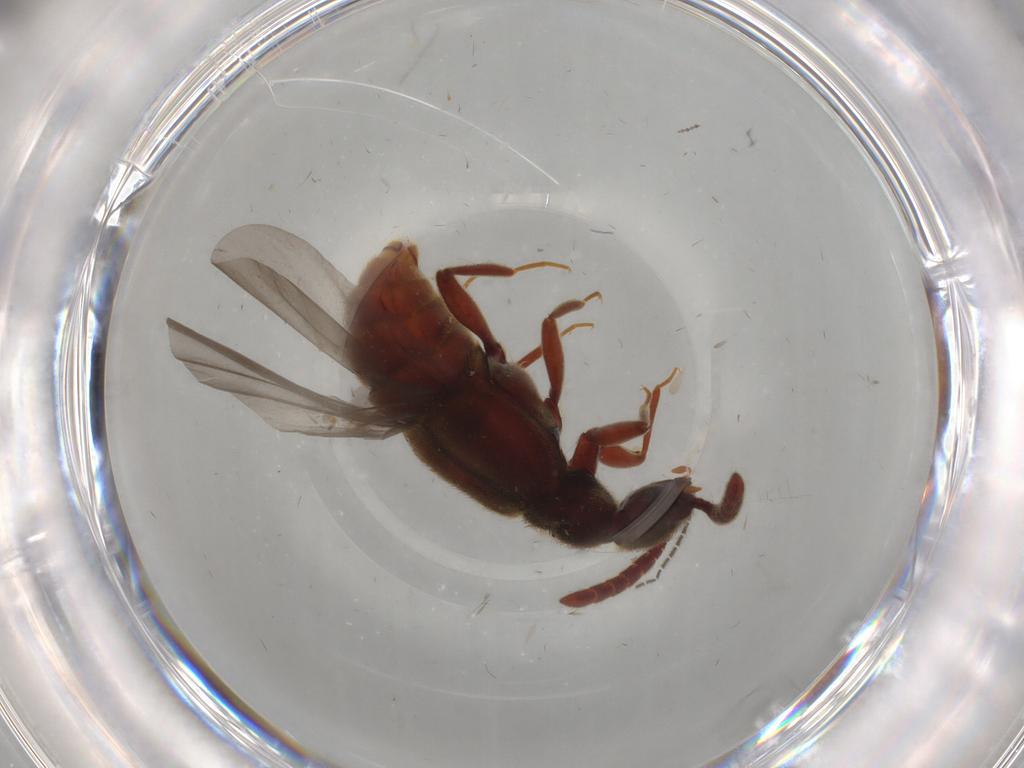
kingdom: Animalia
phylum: Arthropoda
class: Insecta
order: Coleoptera
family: Staphylinidae
